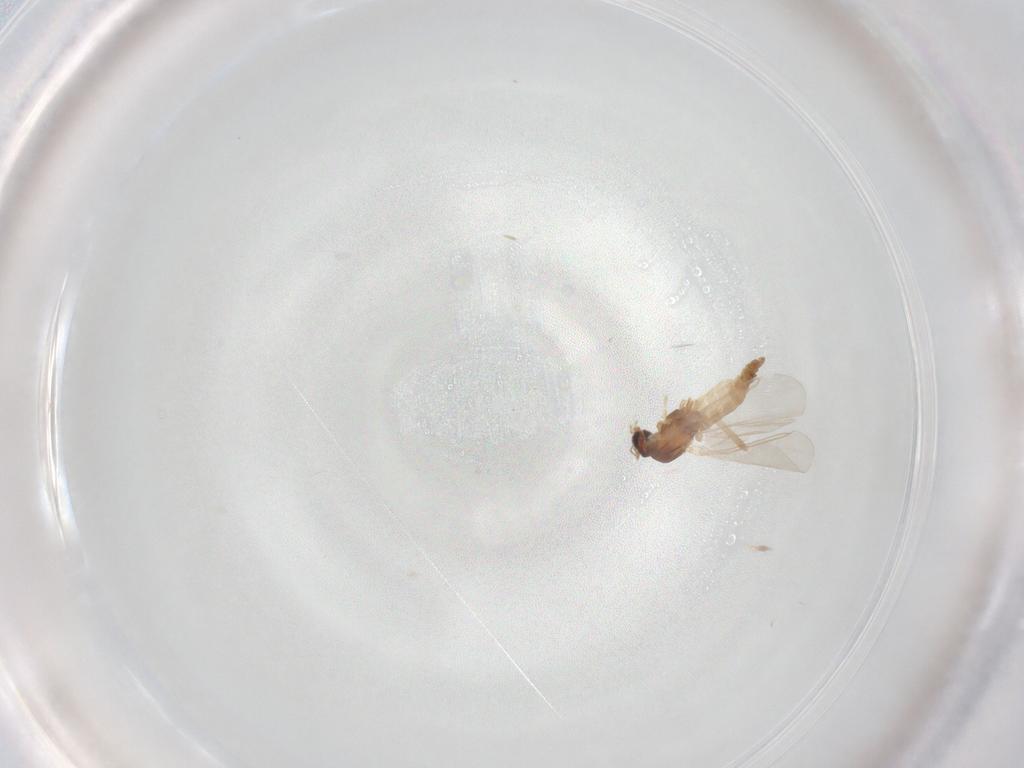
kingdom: Animalia
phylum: Arthropoda
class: Insecta
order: Diptera
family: Cecidomyiidae
